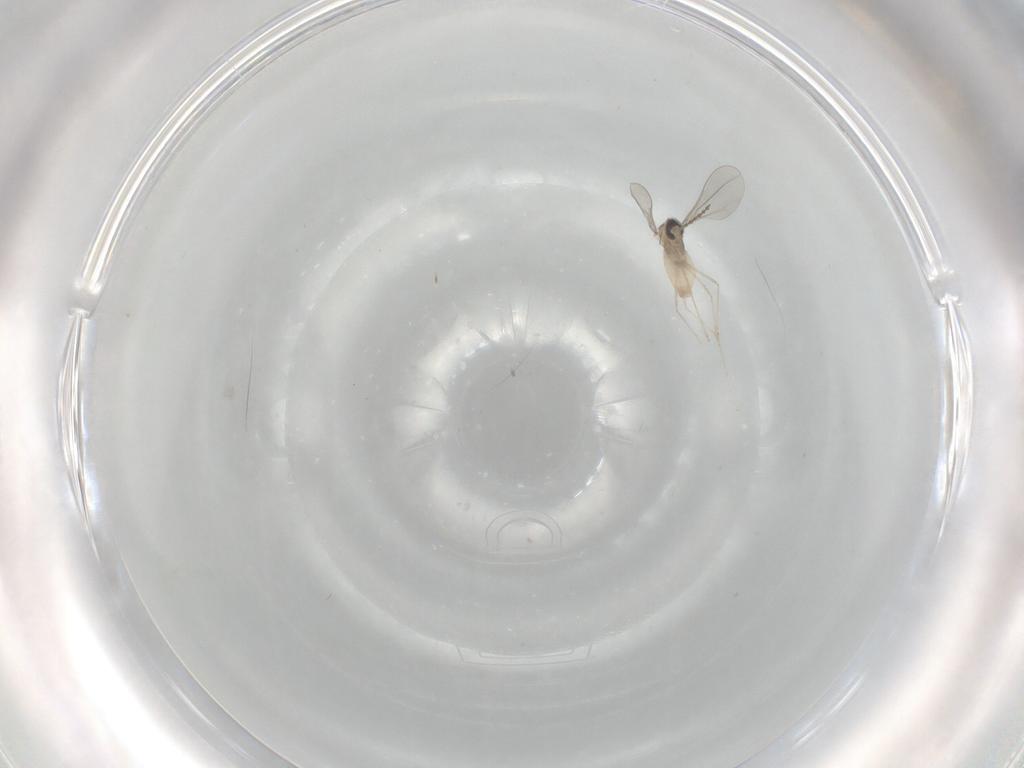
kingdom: Animalia
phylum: Arthropoda
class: Insecta
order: Diptera
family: Cecidomyiidae
